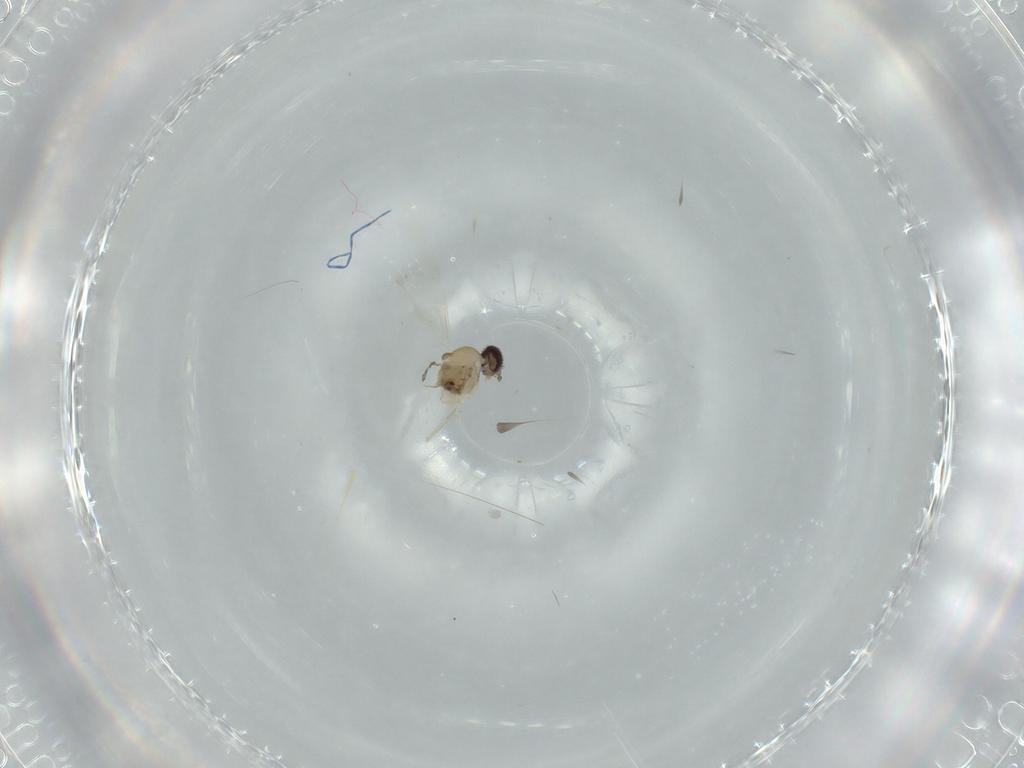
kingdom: Animalia
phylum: Arthropoda
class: Insecta
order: Diptera
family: Cecidomyiidae
